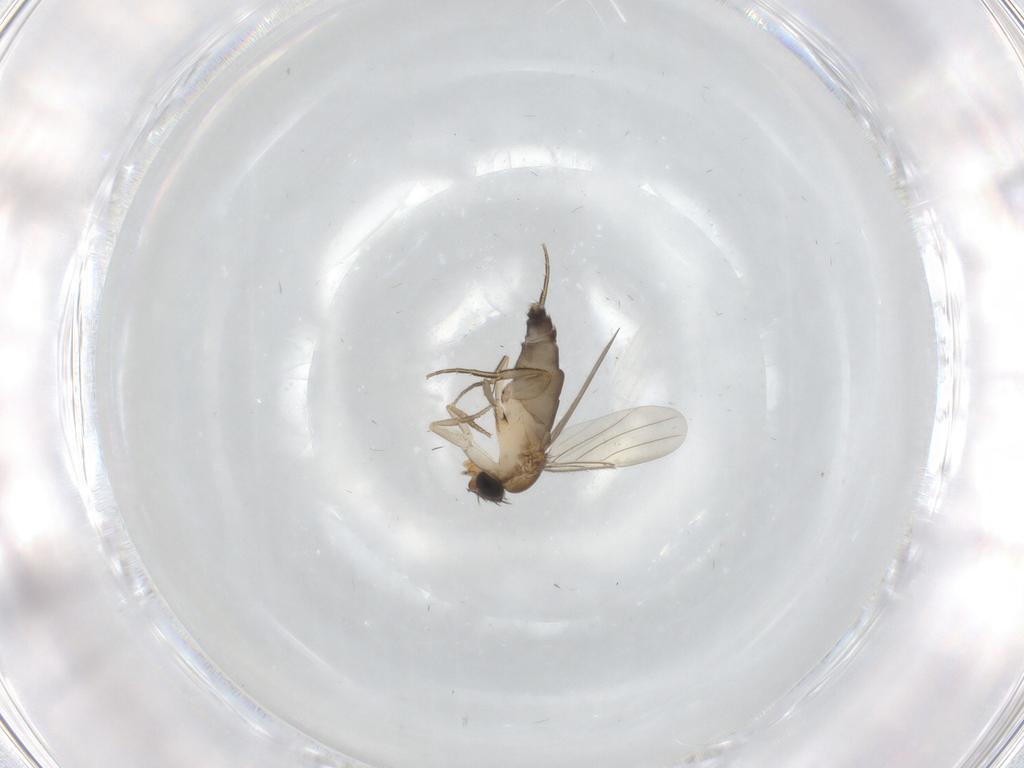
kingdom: Animalia
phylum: Arthropoda
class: Insecta
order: Diptera
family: Phoridae
